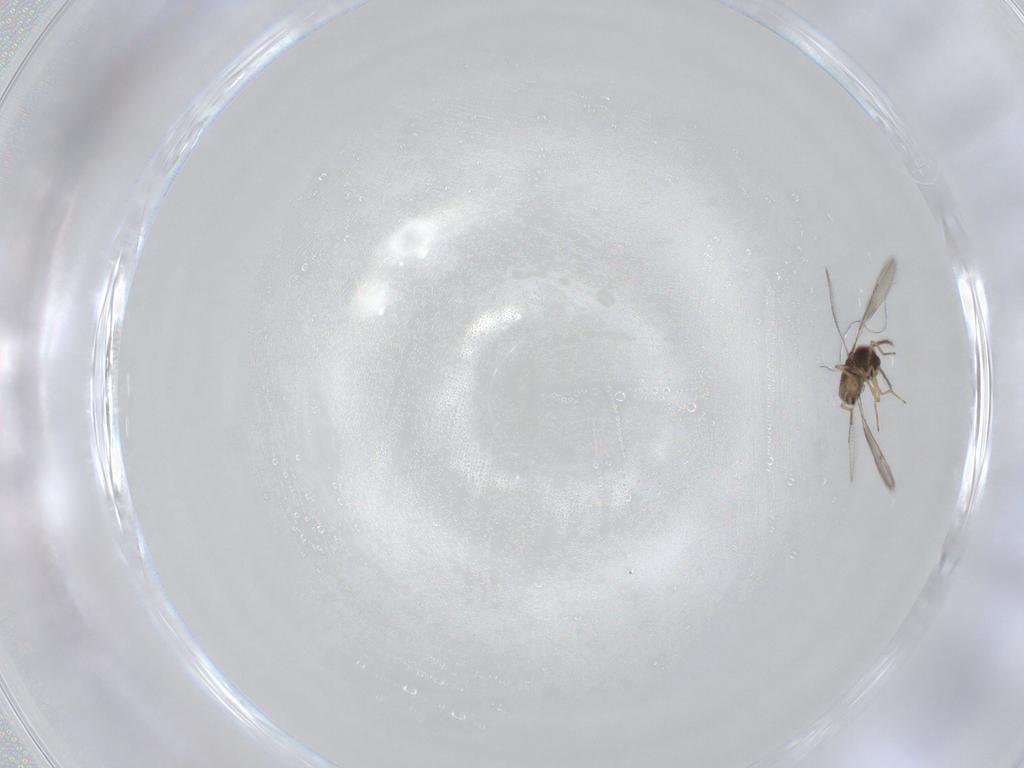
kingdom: Animalia
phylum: Arthropoda
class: Insecta
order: Hymenoptera
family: Eulophidae
